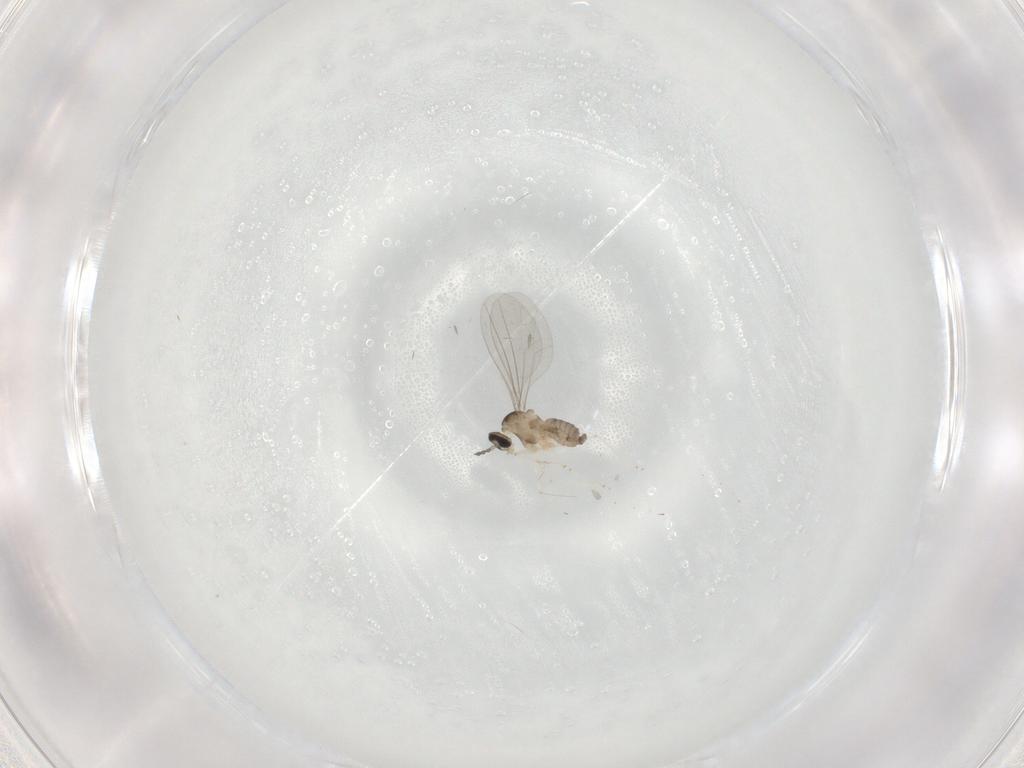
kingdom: Animalia
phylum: Arthropoda
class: Insecta
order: Diptera
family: Cecidomyiidae
